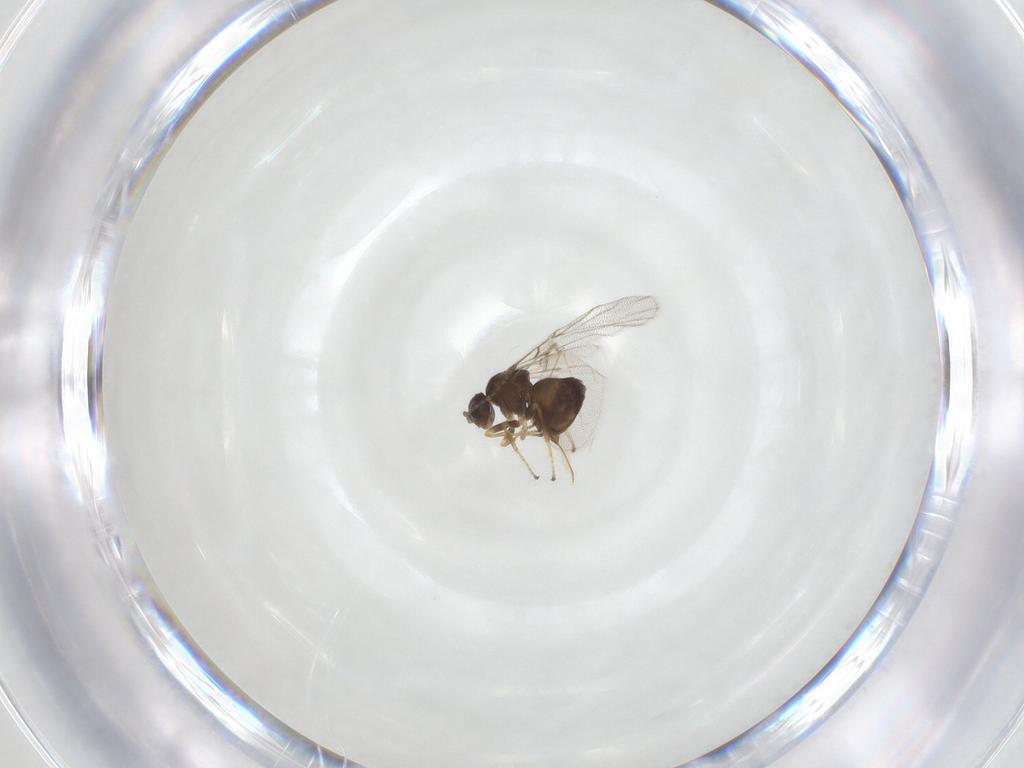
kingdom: Animalia
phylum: Arthropoda
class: Insecta
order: Hymenoptera
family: Cynipidae
